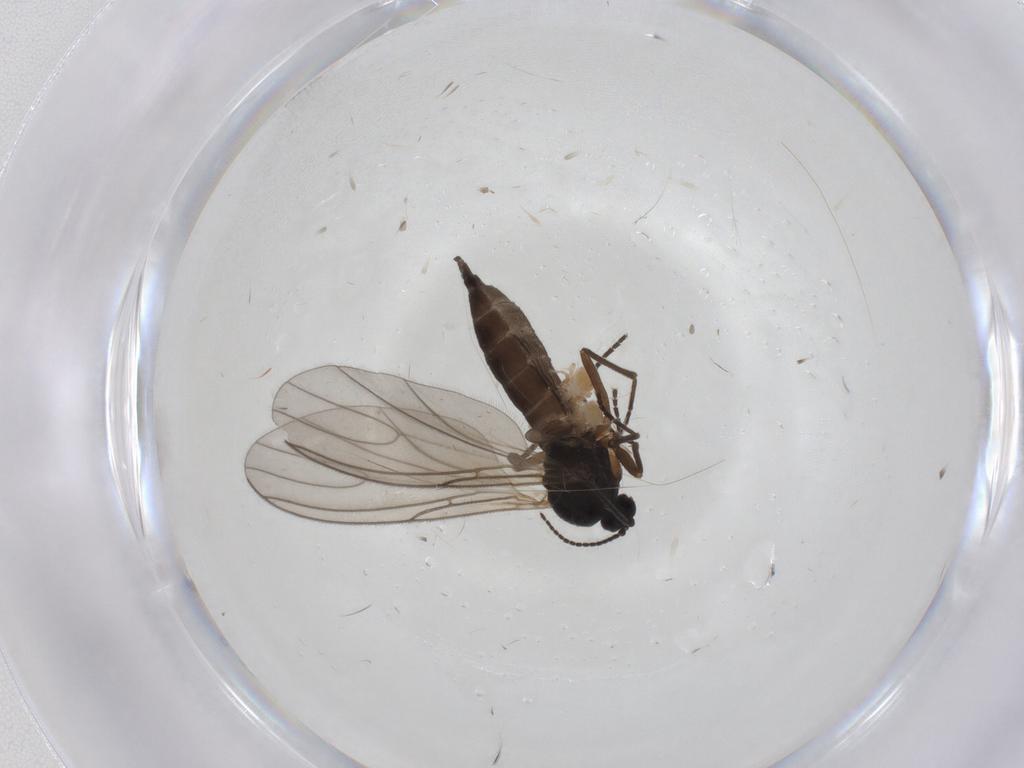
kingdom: Animalia
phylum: Arthropoda
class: Insecta
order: Diptera
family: Sciaridae
